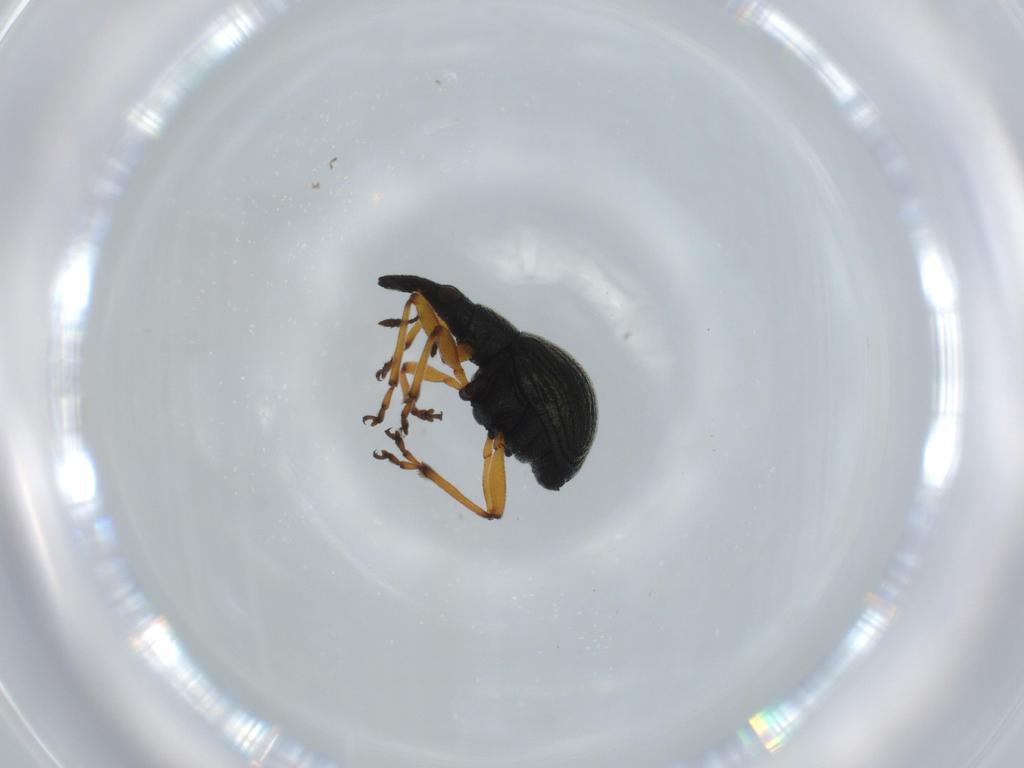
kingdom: Animalia
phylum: Arthropoda
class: Insecta
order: Coleoptera
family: Brentidae
